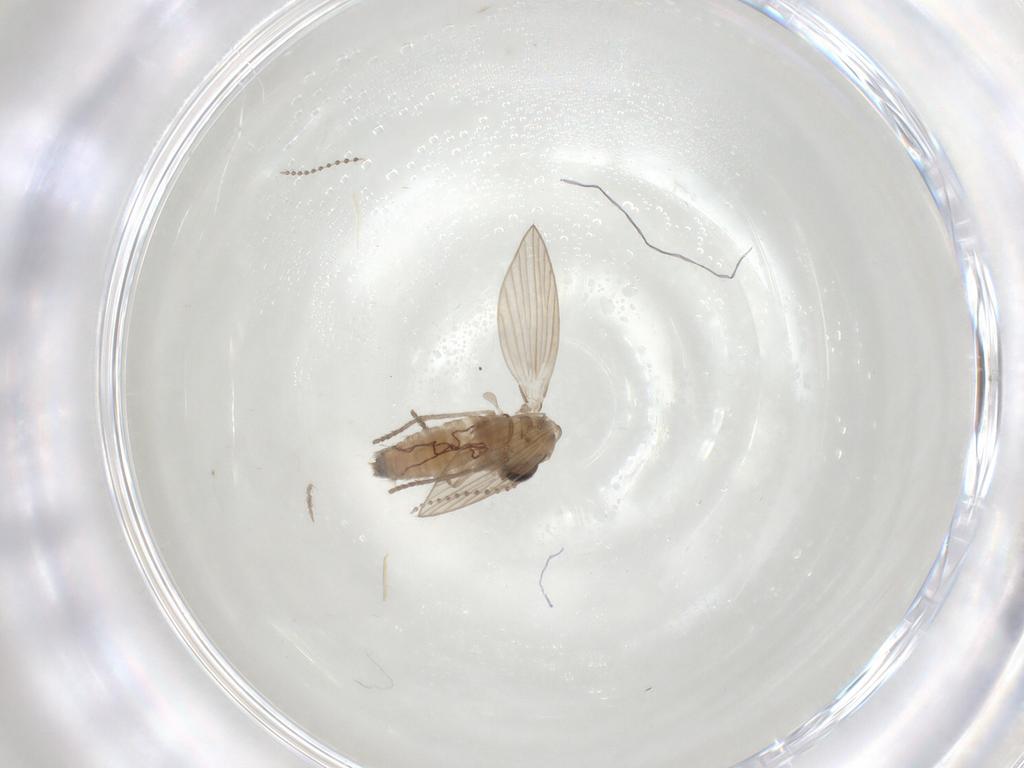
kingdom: Animalia
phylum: Arthropoda
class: Insecta
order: Diptera
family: Psychodidae
